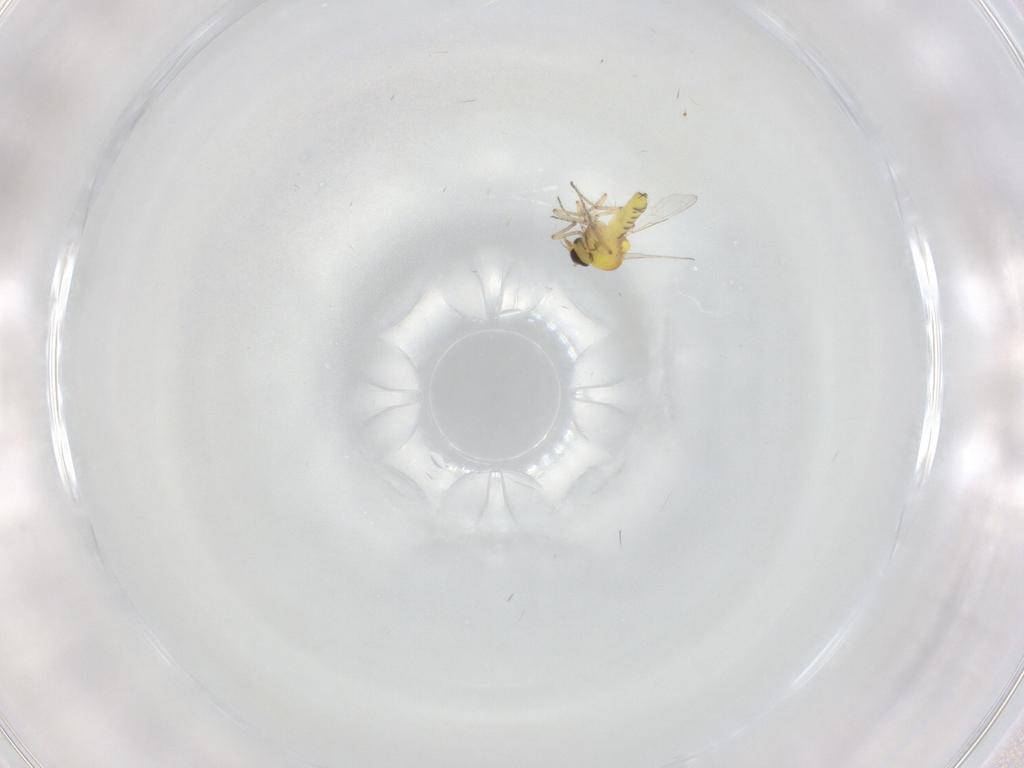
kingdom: Animalia
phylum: Arthropoda
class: Insecta
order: Diptera
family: Ceratopogonidae
